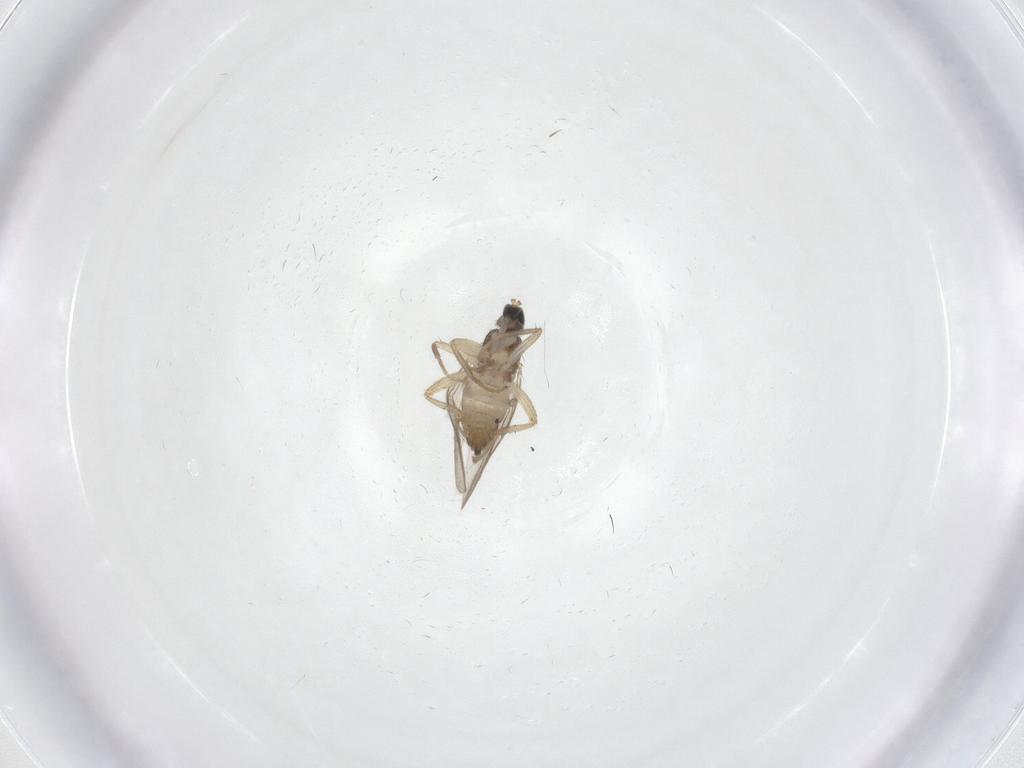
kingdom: Animalia
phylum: Arthropoda
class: Insecta
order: Diptera
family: Hybotidae
